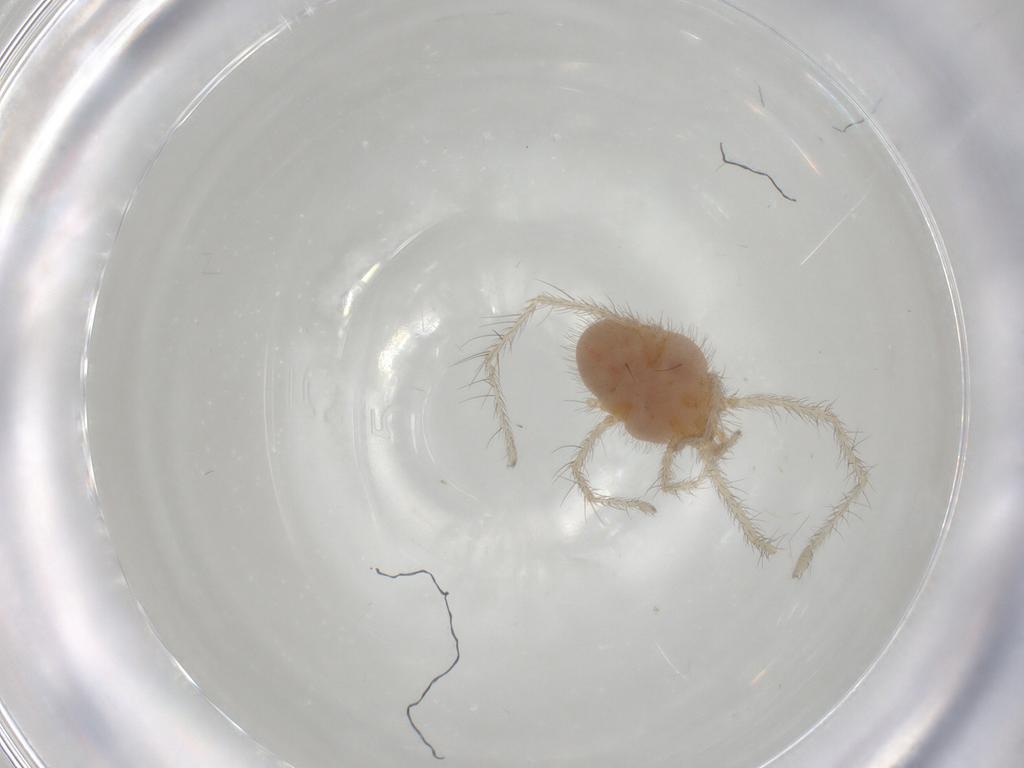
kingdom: Animalia
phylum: Arthropoda
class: Arachnida
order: Trombidiformes
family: Erythraeidae
